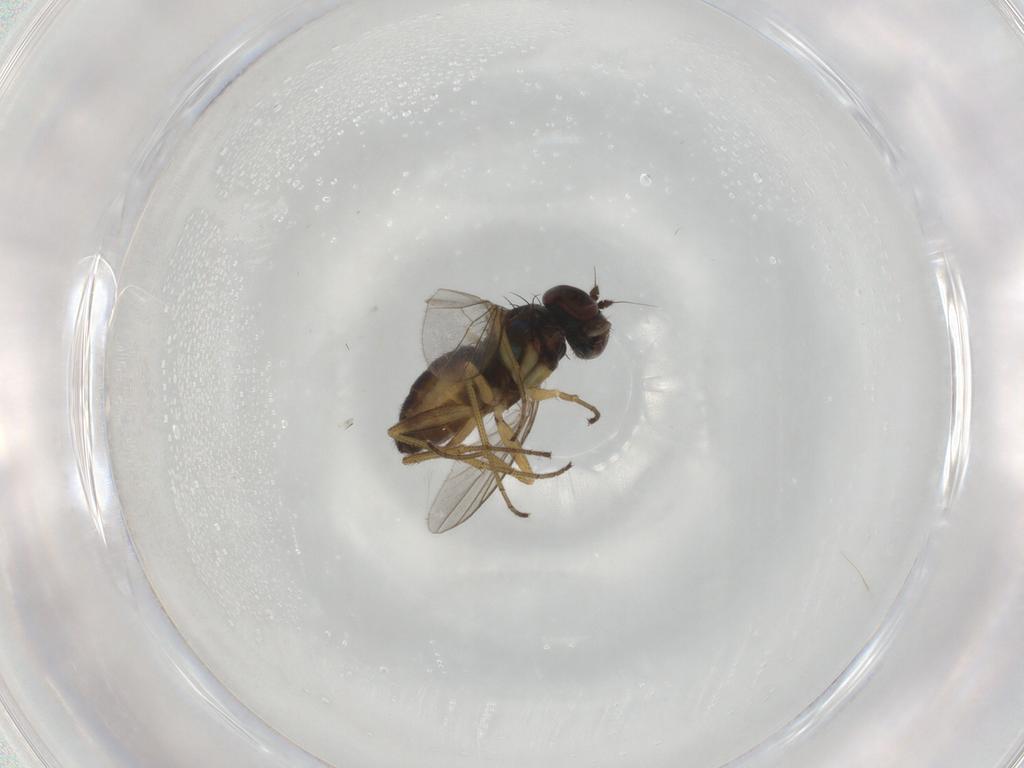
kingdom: Animalia
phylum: Arthropoda
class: Insecta
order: Diptera
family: Dolichopodidae
